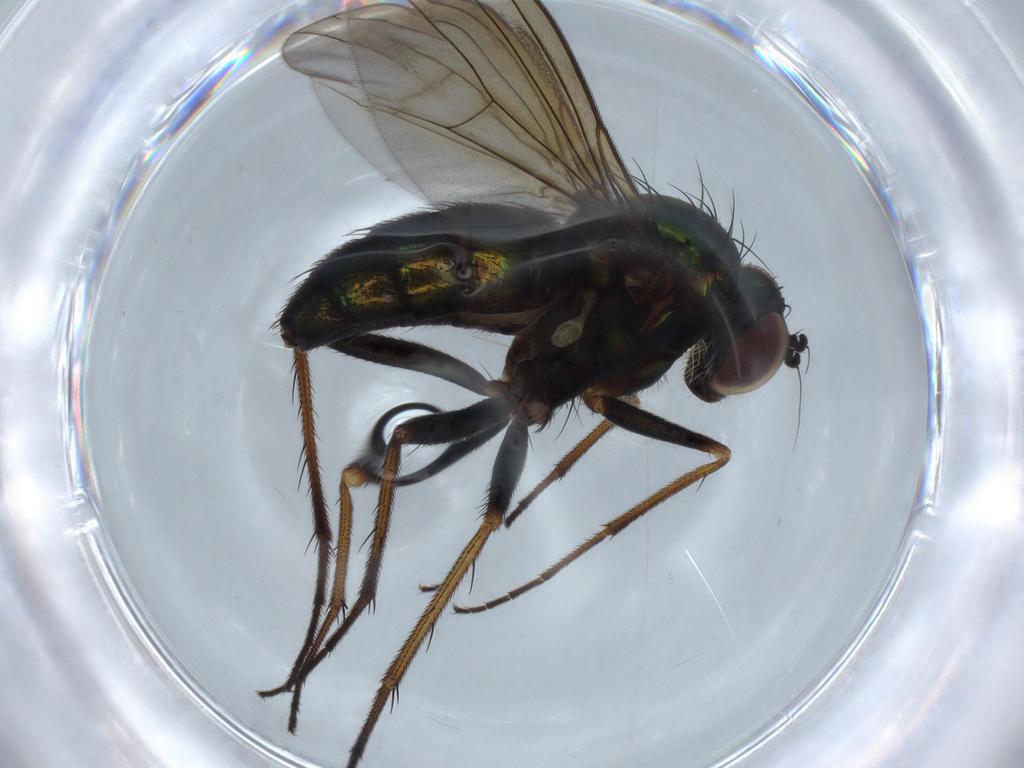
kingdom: Animalia
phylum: Arthropoda
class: Insecta
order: Diptera
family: Dolichopodidae
